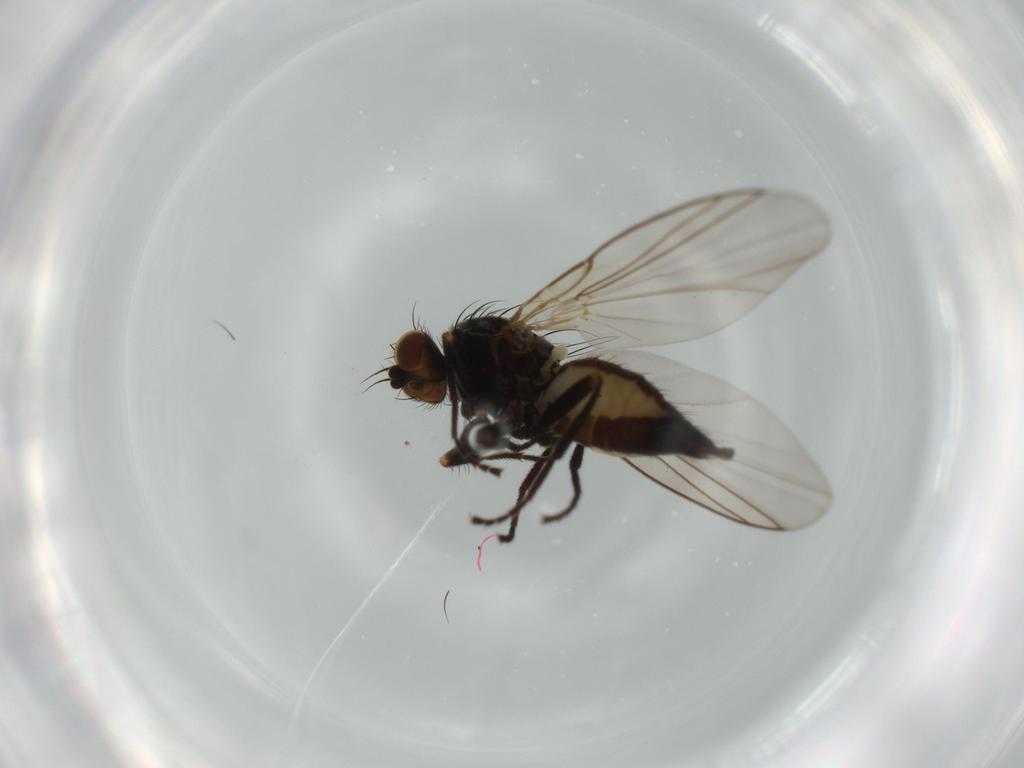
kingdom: Animalia
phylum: Arthropoda
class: Insecta
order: Diptera
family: Agromyzidae
